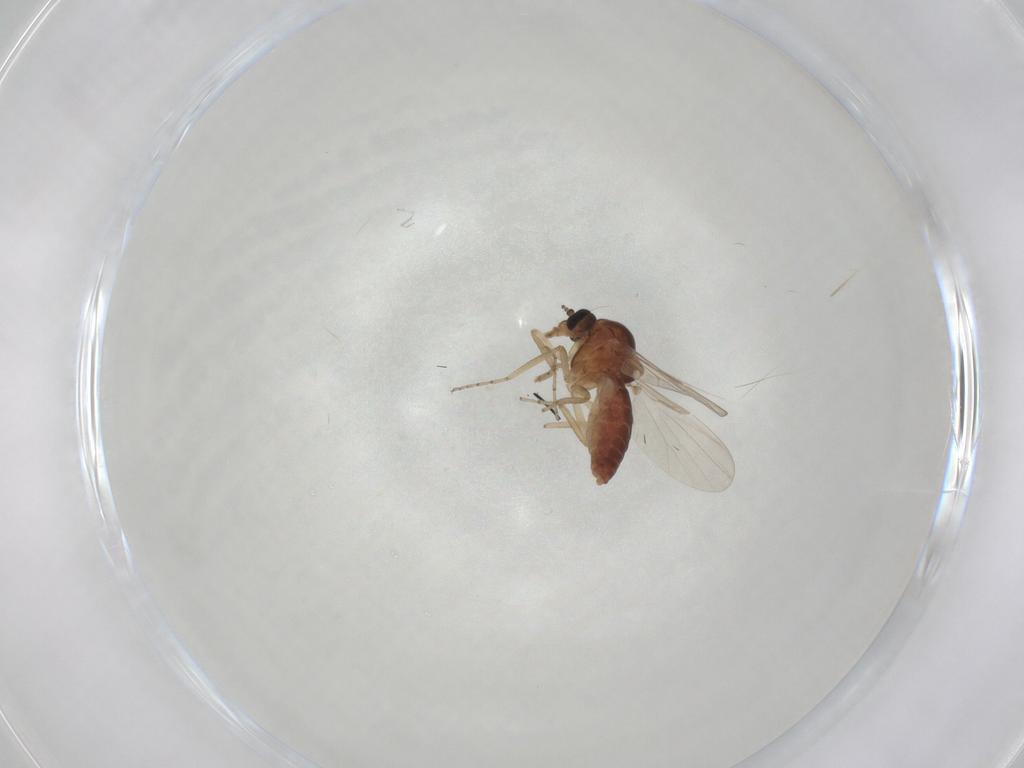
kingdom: Animalia
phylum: Arthropoda
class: Insecta
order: Diptera
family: Ceratopogonidae
